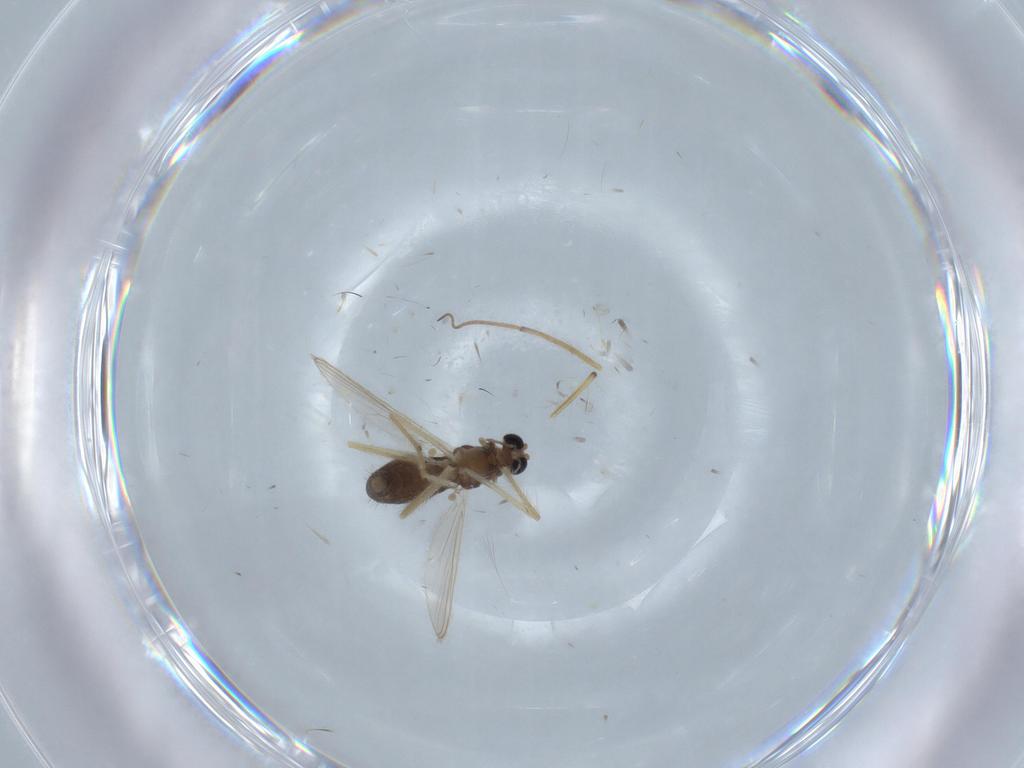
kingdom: Animalia
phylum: Arthropoda
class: Insecta
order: Diptera
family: Chironomidae
